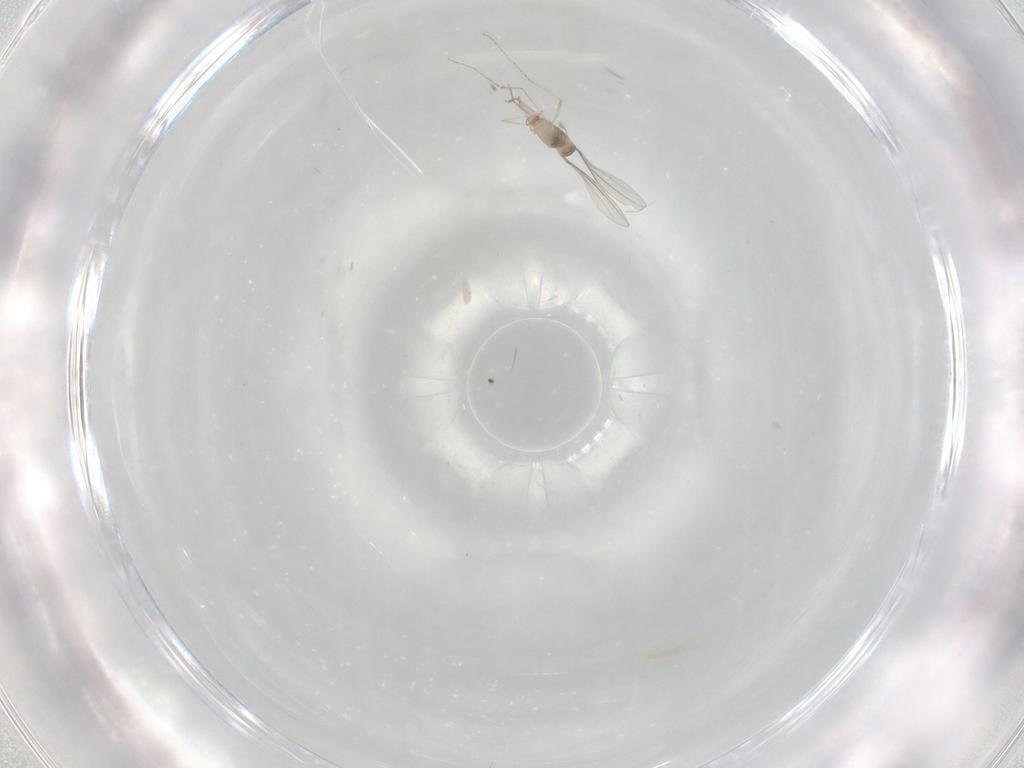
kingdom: Animalia
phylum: Arthropoda
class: Insecta
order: Diptera
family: Cecidomyiidae
